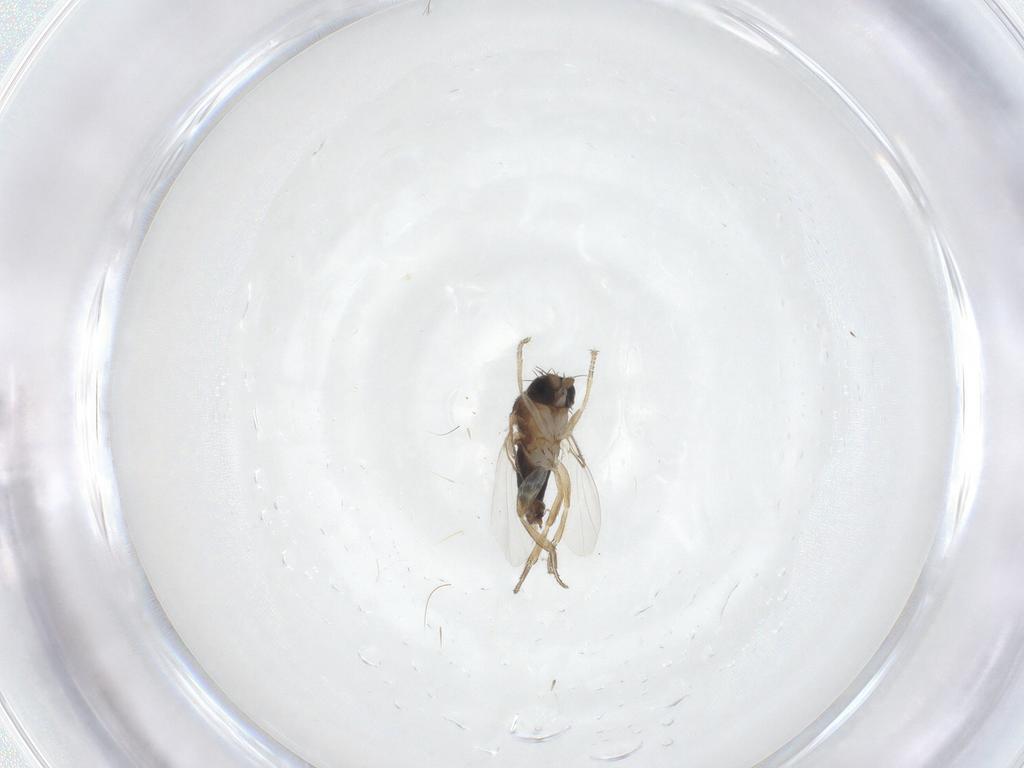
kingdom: Animalia
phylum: Arthropoda
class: Insecta
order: Diptera
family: Phoridae
